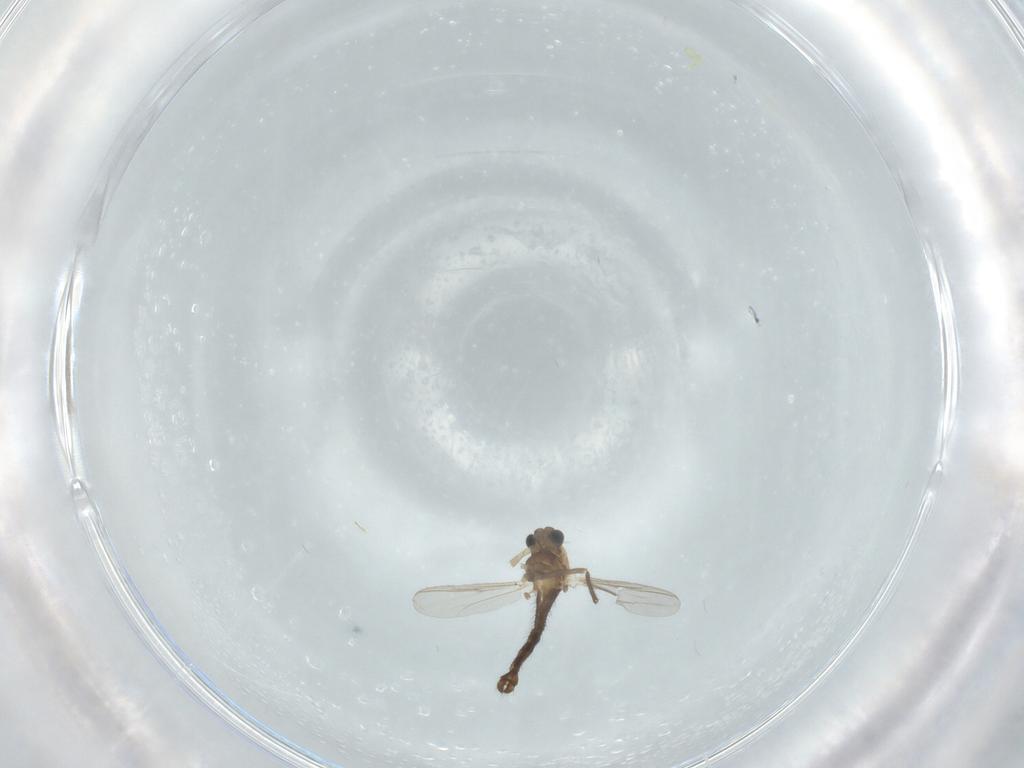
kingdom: Animalia
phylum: Arthropoda
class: Insecta
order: Diptera
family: Chironomidae
